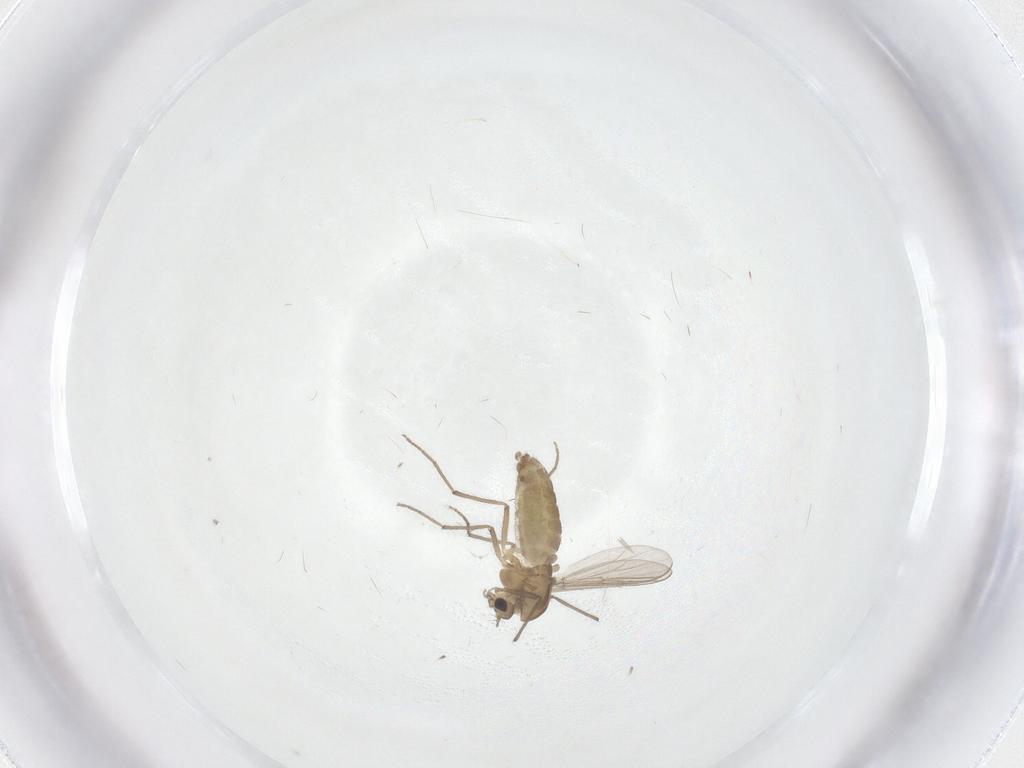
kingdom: Animalia
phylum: Arthropoda
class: Insecta
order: Diptera
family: Chironomidae
